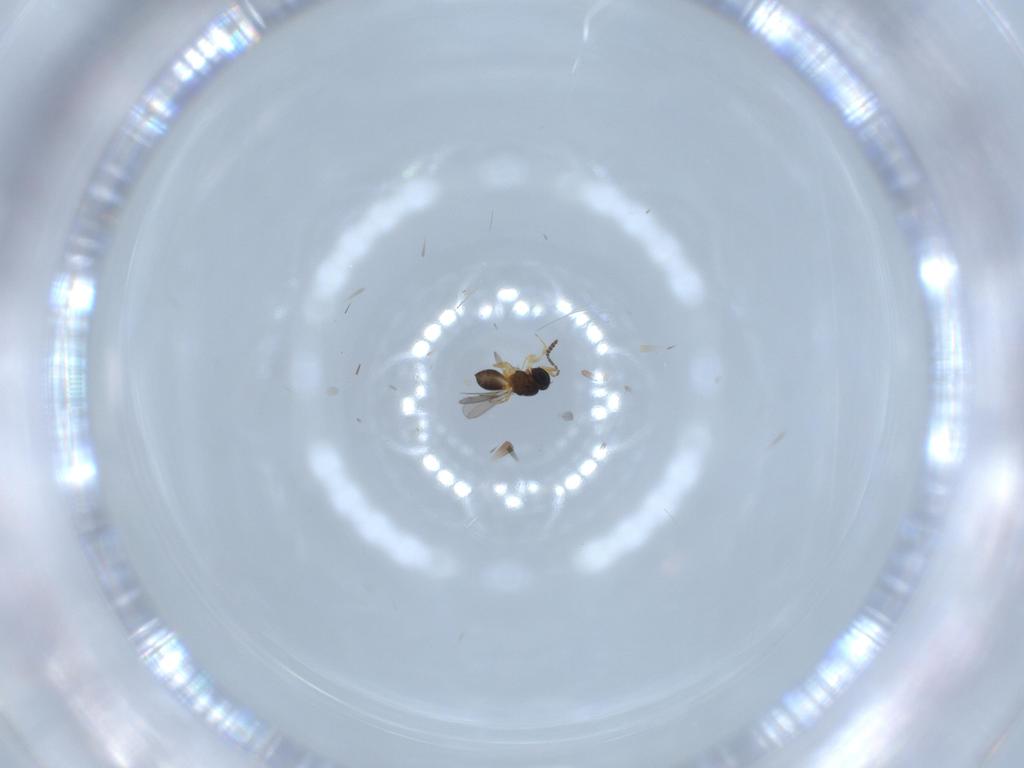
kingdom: Animalia
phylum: Arthropoda
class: Insecta
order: Hymenoptera
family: Scelionidae
